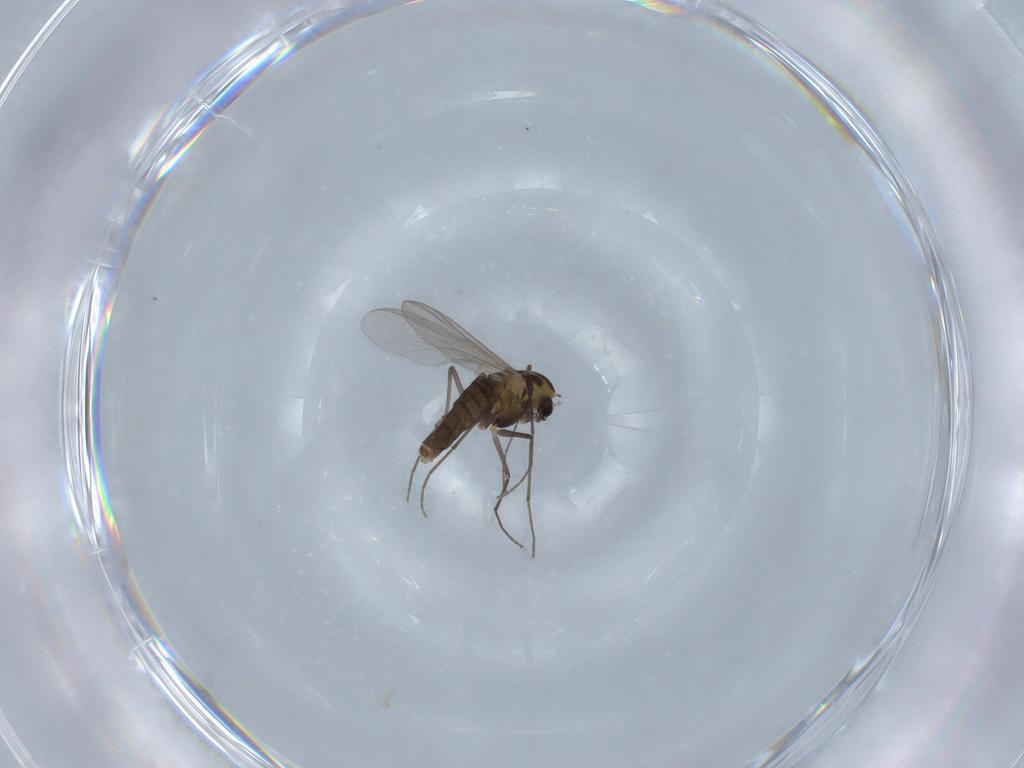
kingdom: Animalia
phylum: Arthropoda
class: Insecta
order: Diptera
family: Chironomidae
